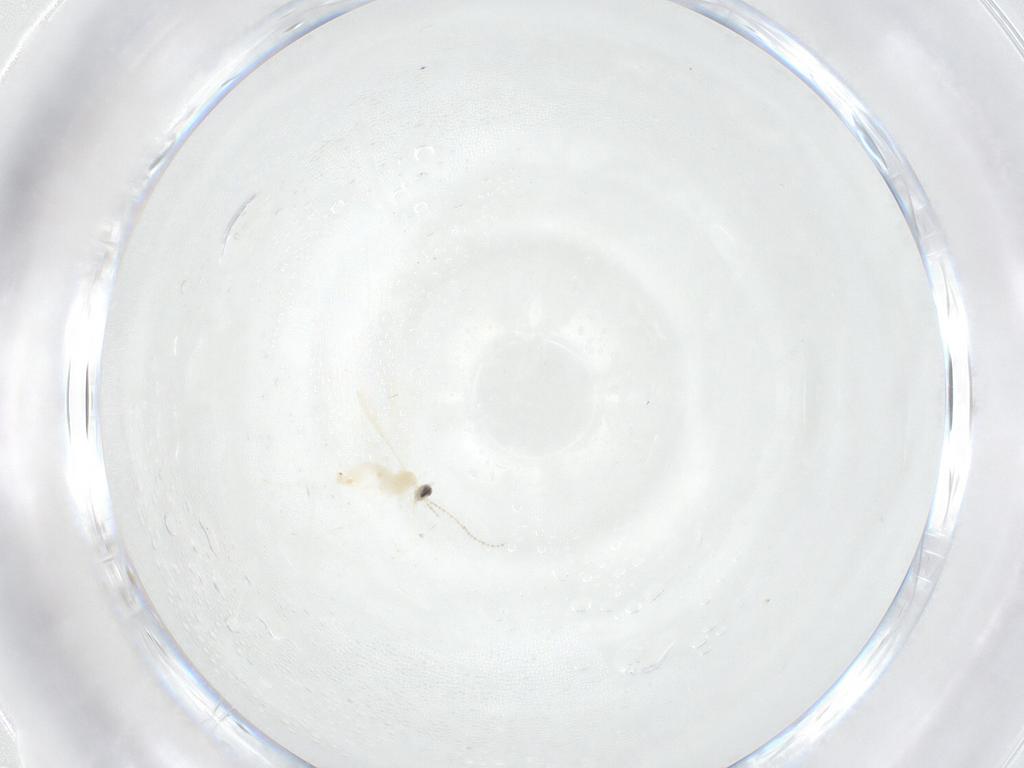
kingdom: Animalia
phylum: Arthropoda
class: Insecta
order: Diptera
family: Cecidomyiidae
